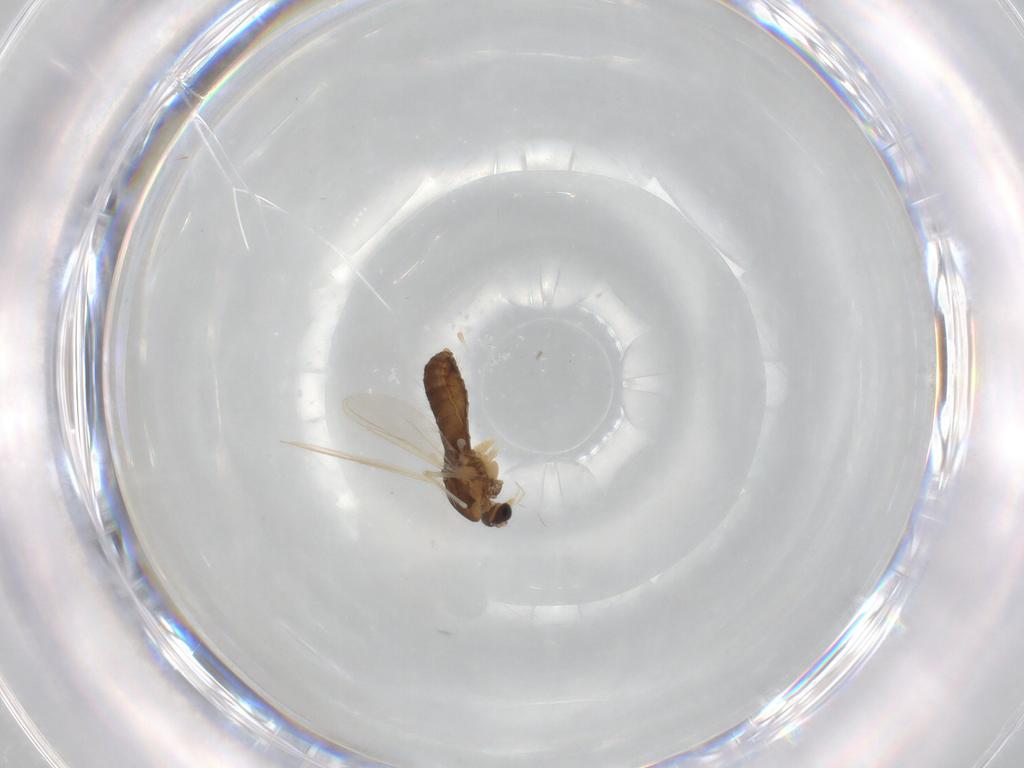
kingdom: Animalia
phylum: Arthropoda
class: Insecta
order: Diptera
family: Chironomidae
